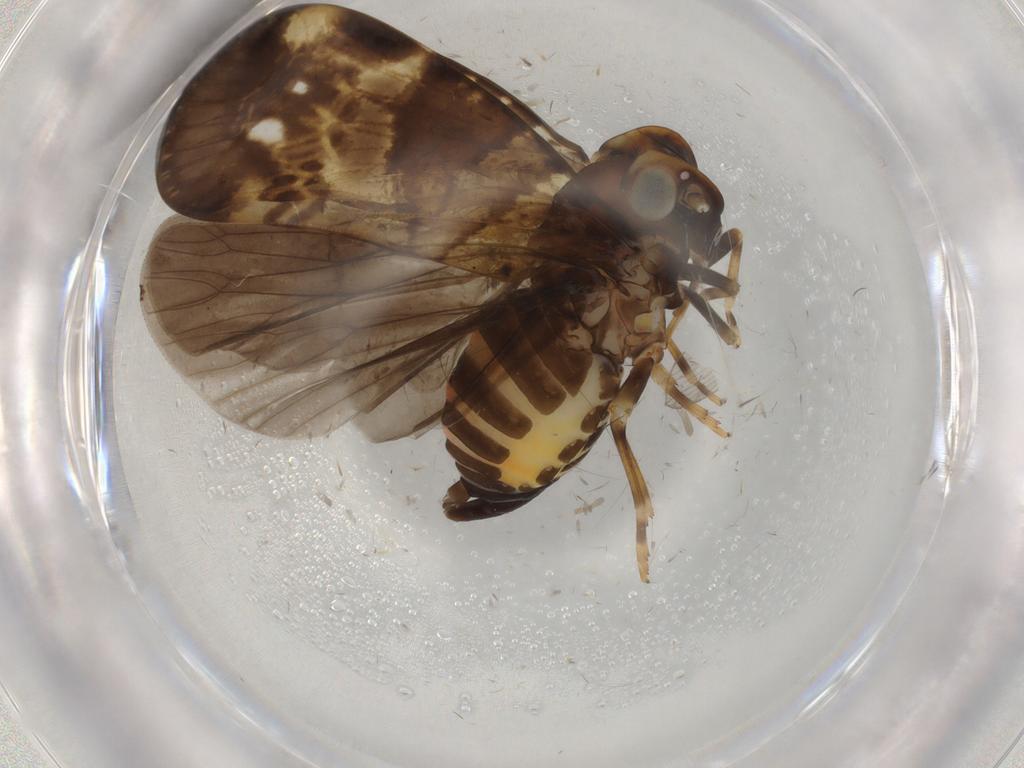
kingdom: Animalia
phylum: Arthropoda
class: Insecta
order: Hemiptera
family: Cixiidae
